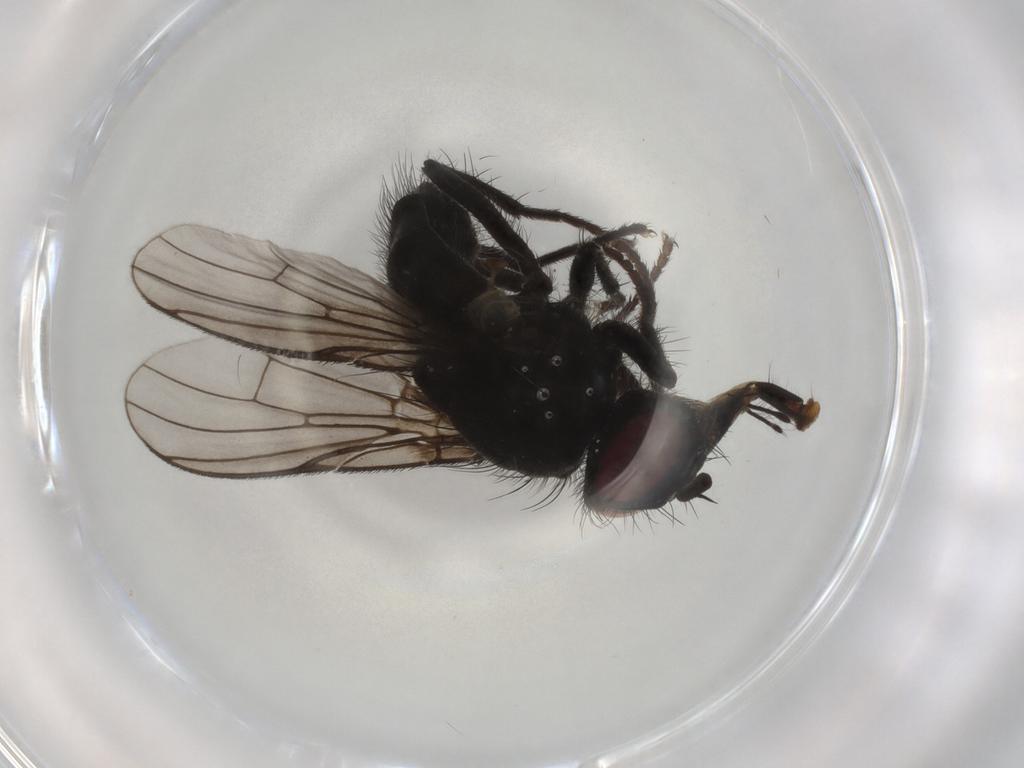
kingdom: Animalia
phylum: Arthropoda
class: Insecta
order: Diptera
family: Muscidae
